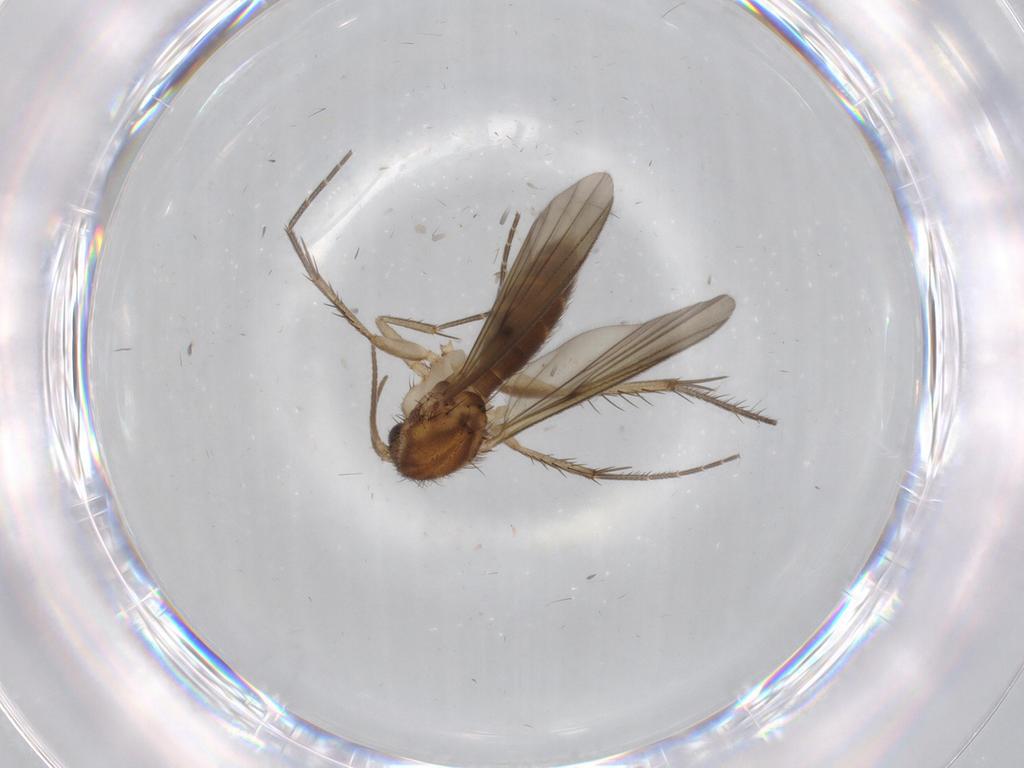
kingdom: Animalia
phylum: Arthropoda
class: Insecta
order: Diptera
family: Mycetophilidae
